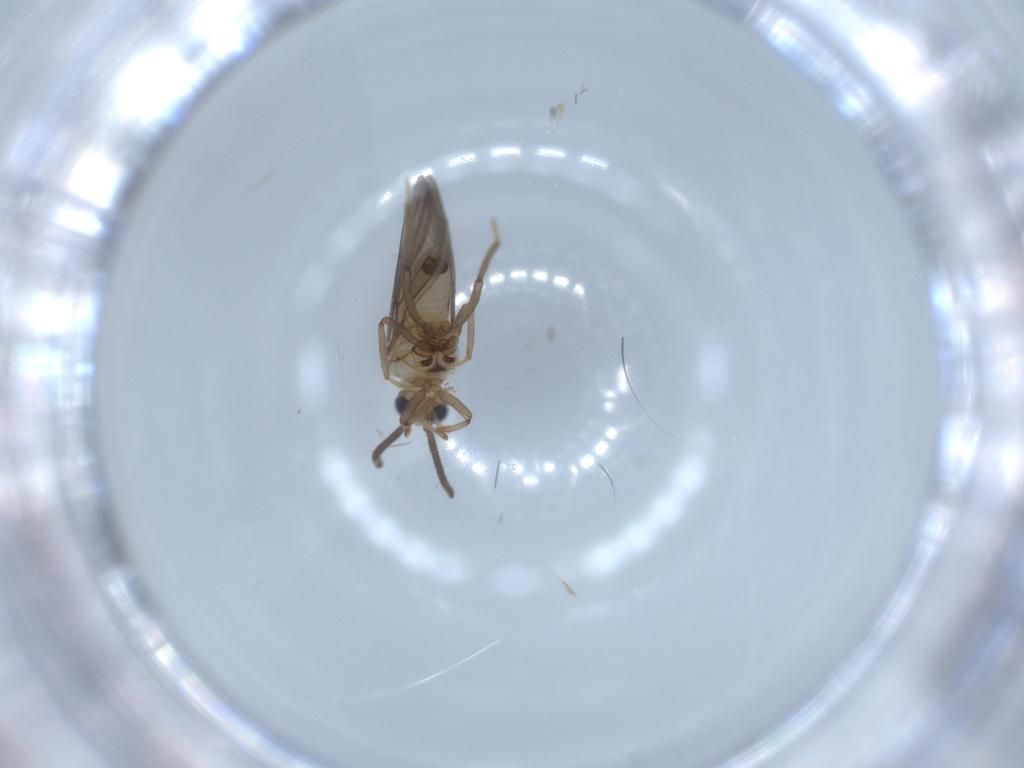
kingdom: Animalia
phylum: Arthropoda
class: Insecta
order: Neuroptera
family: Coniopterygidae
